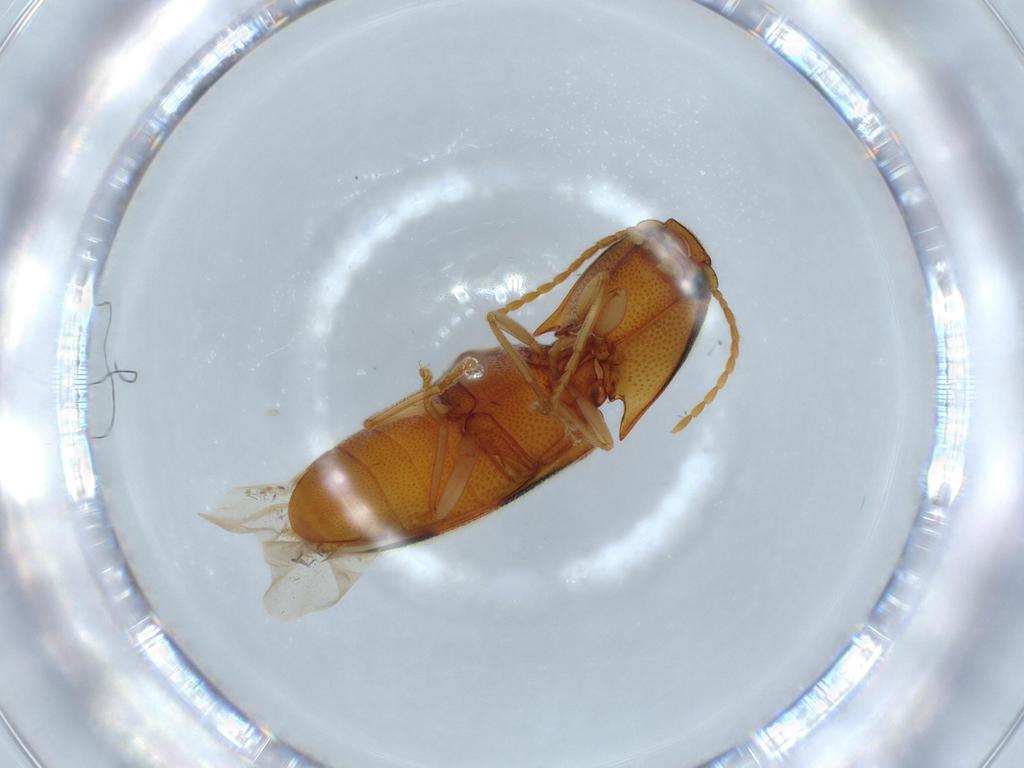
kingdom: Animalia
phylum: Arthropoda
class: Insecta
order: Coleoptera
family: Elateridae
